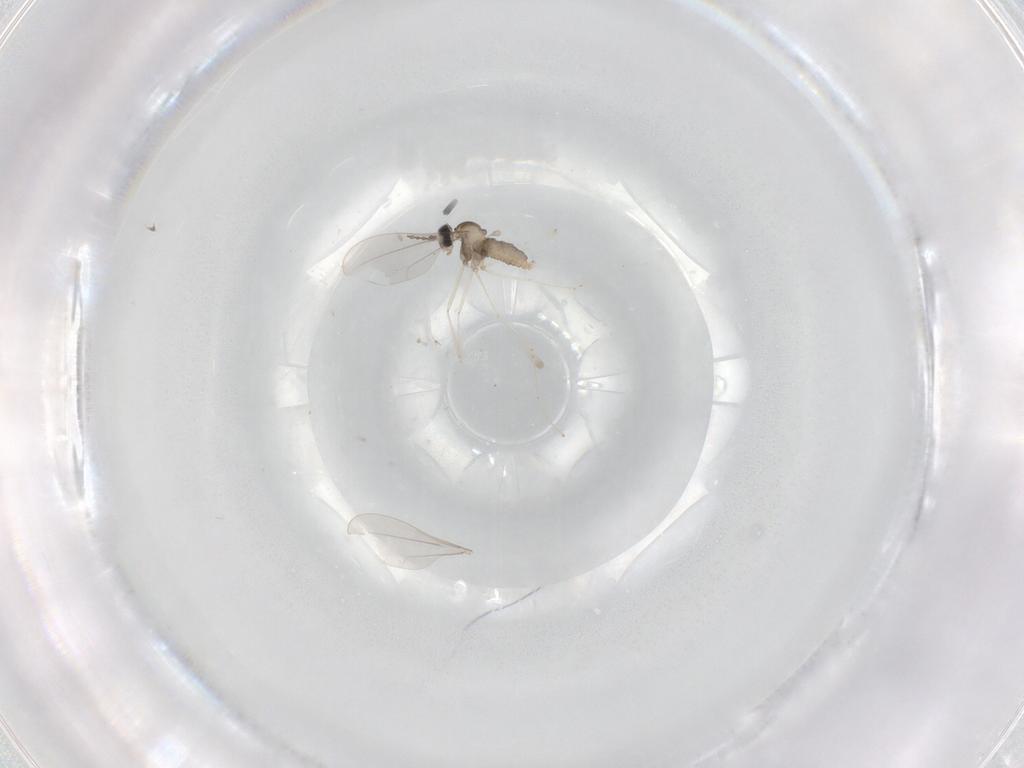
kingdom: Animalia
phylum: Arthropoda
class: Insecta
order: Diptera
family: Cecidomyiidae
